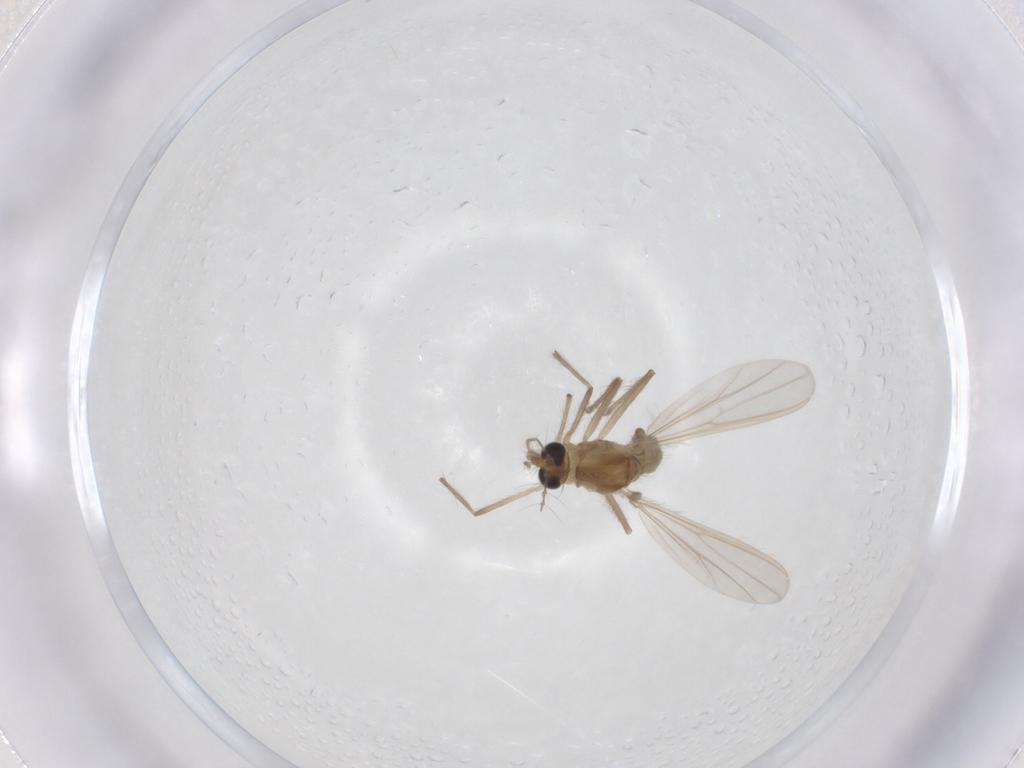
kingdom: Animalia
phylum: Arthropoda
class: Insecta
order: Diptera
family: Chironomidae
